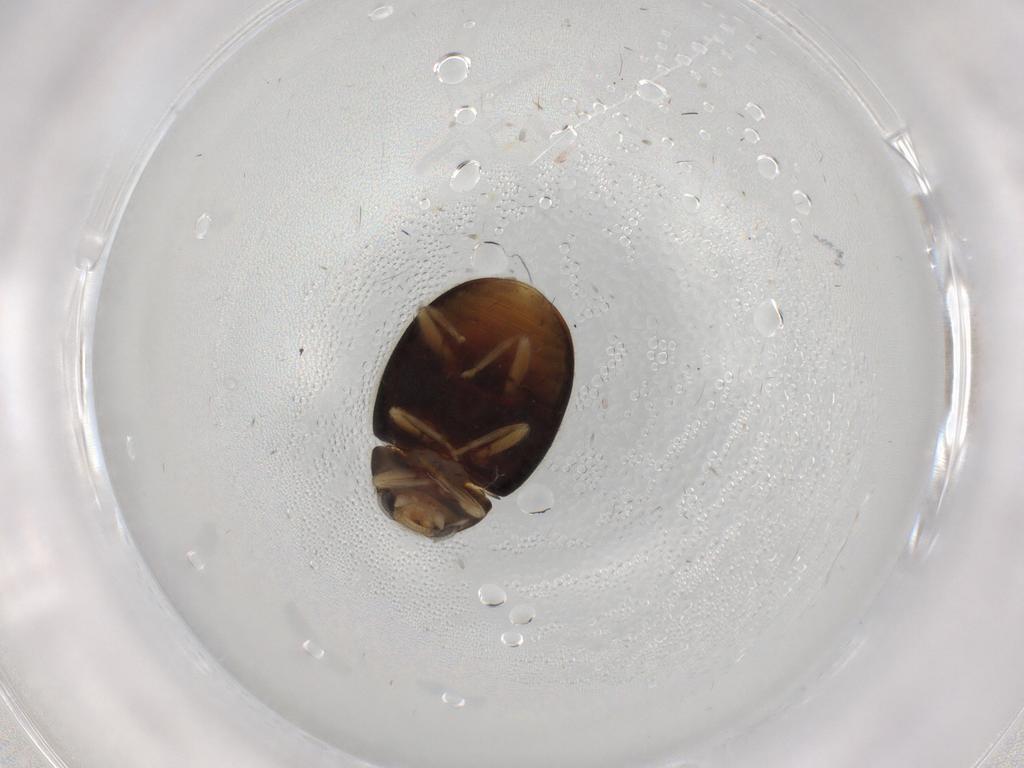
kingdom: Animalia
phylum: Arthropoda
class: Insecta
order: Coleoptera
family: Coccinellidae
